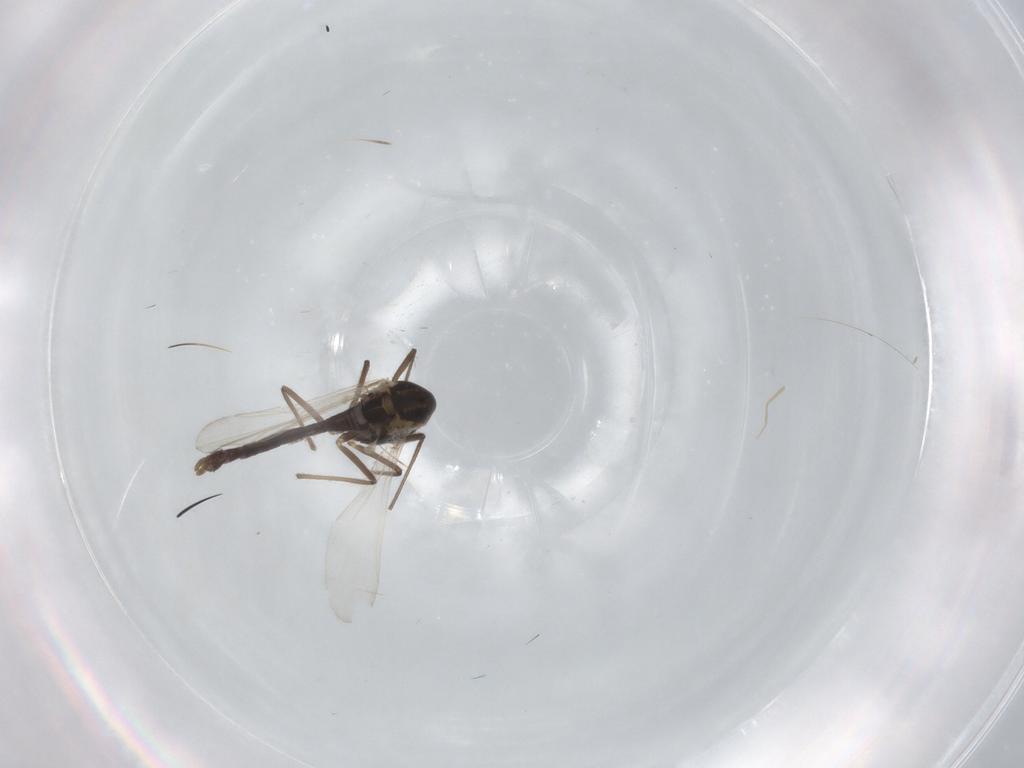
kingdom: Animalia
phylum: Arthropoda
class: Insecta
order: Diptera
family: Chironomidae
